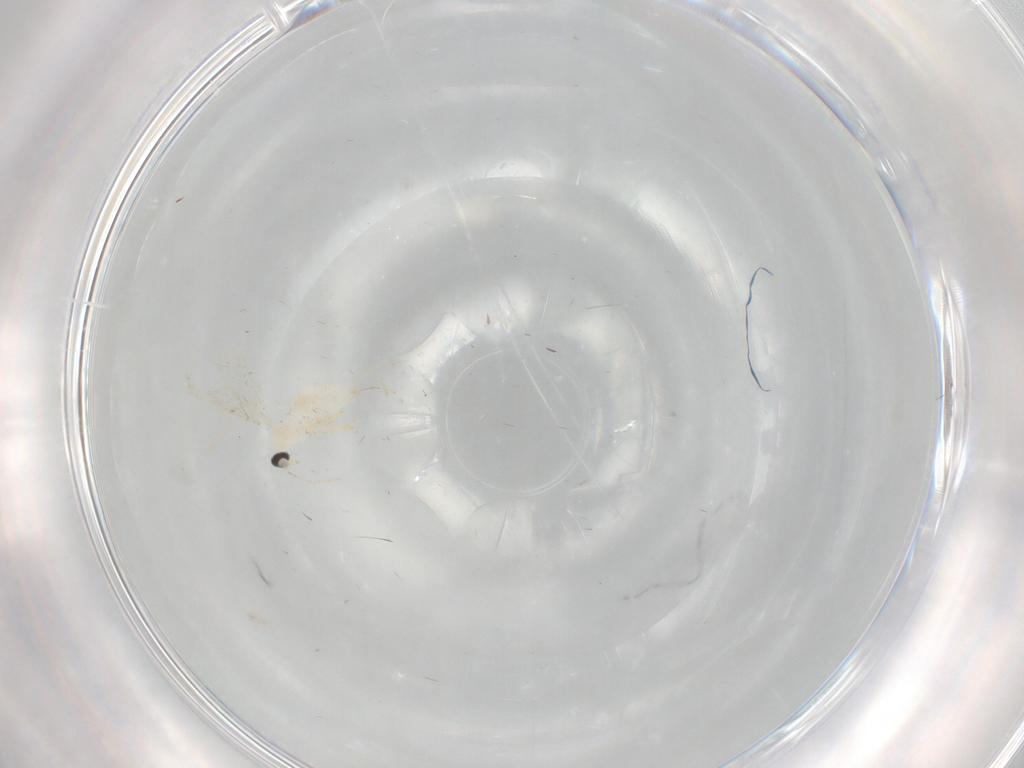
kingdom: Animalia
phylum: Arthropoda
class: Insecta
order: Diptera
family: Cecidomyiidae
